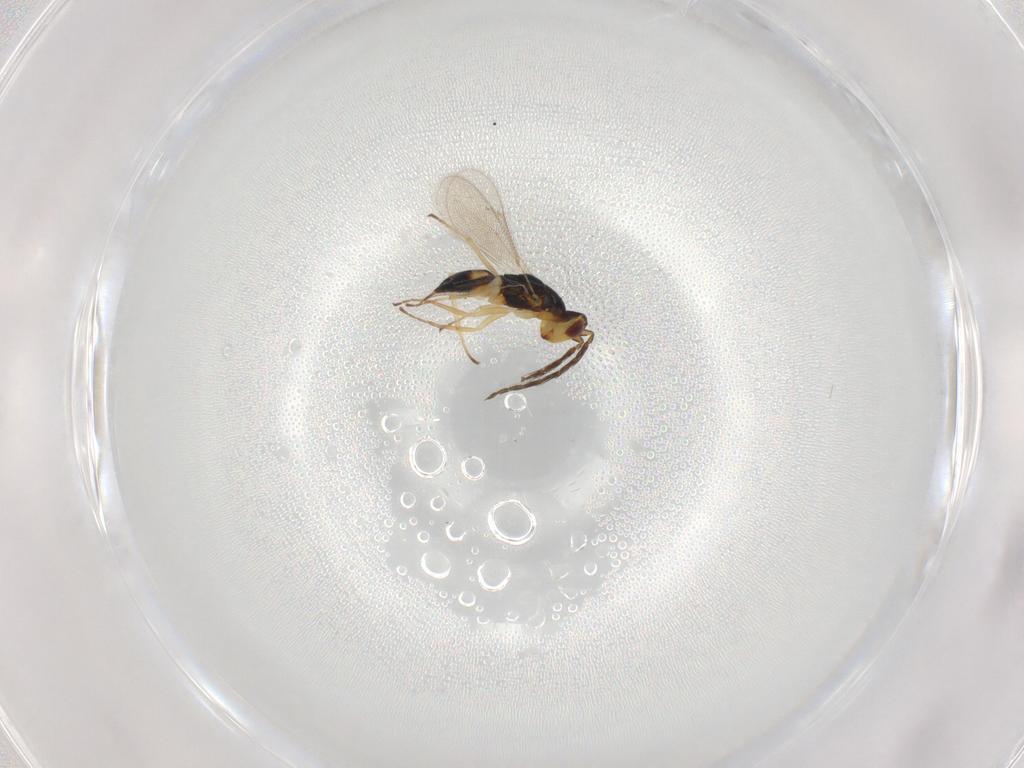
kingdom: Animalia
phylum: Arthropoda
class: Insecta
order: Hymenoptera
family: Eulophidae
